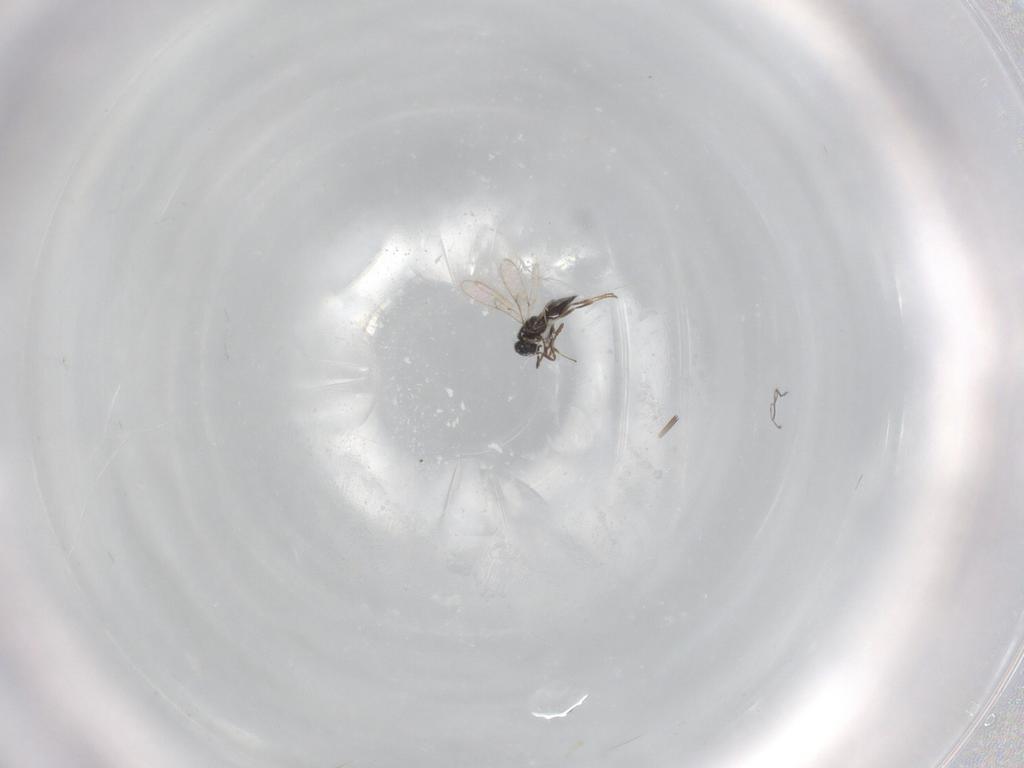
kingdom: Animalia
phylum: Arthropoda
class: Insecta
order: Hymenoptera
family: Scelionidae
